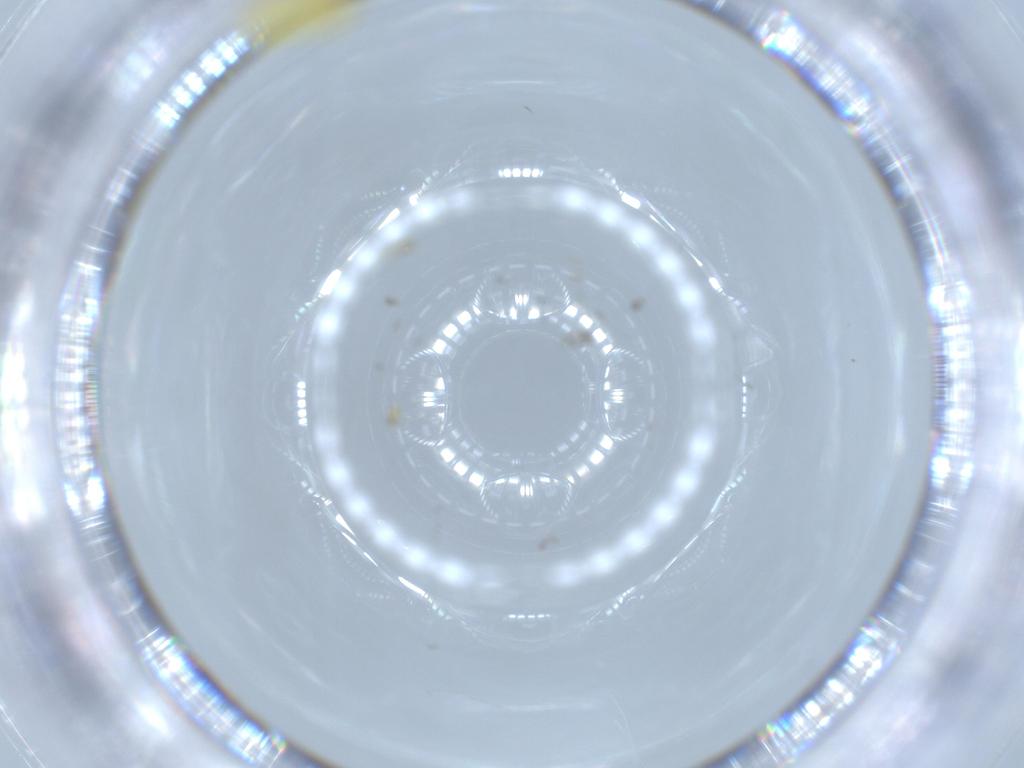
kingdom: Animalia
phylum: Arthropoda
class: Insecta
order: Hemiptera
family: Aleyrodidae
